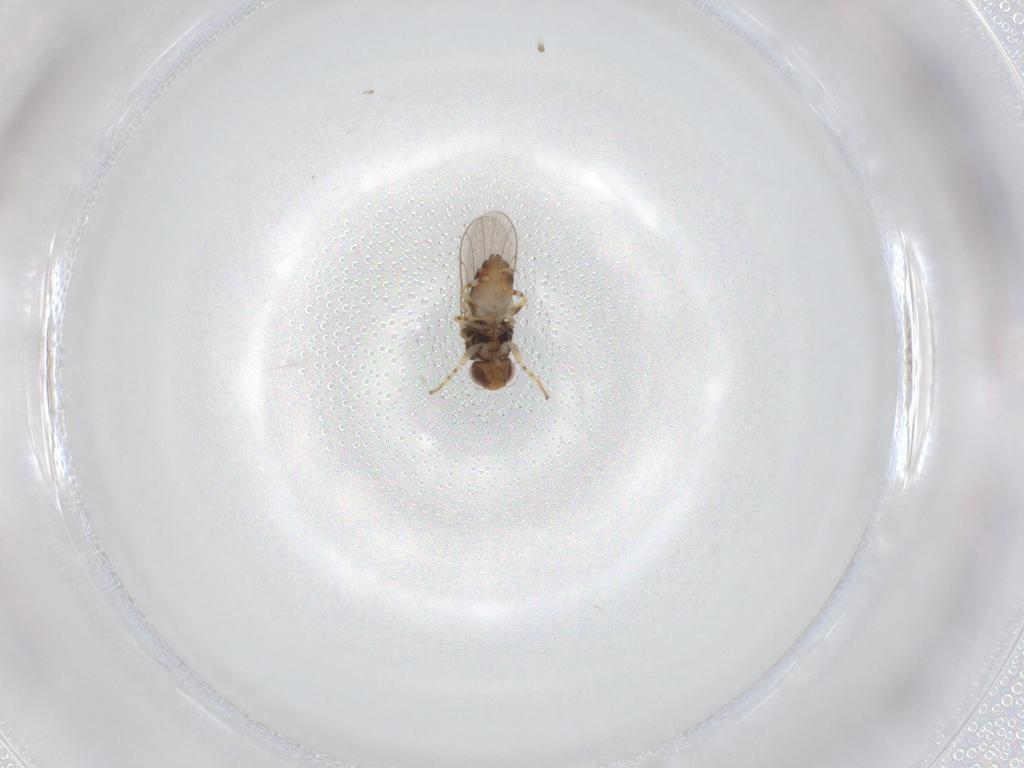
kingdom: Animalia
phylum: Arthropoda
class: Insecta
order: Diptera
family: Chloropidae
